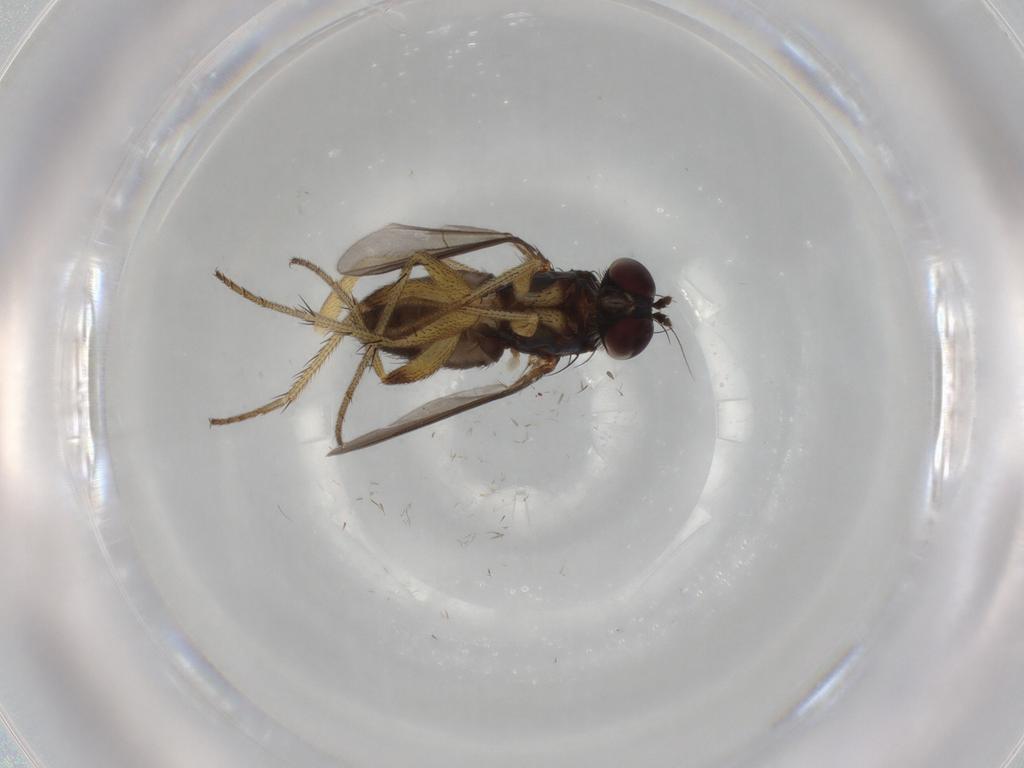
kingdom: Animalia
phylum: Arthropoda
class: Insecta
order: Diptera
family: Dolichopodidae
